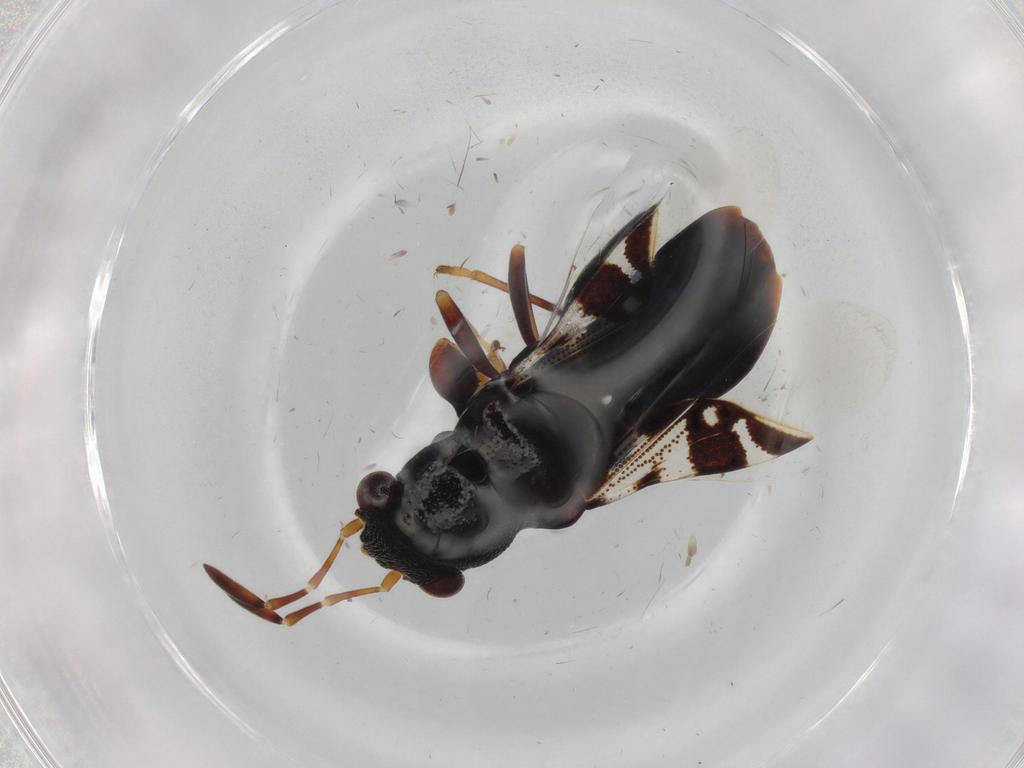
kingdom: Animalia
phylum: Arthropoda
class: Insecta
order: Hemiptera
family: Rhyparochromidae
